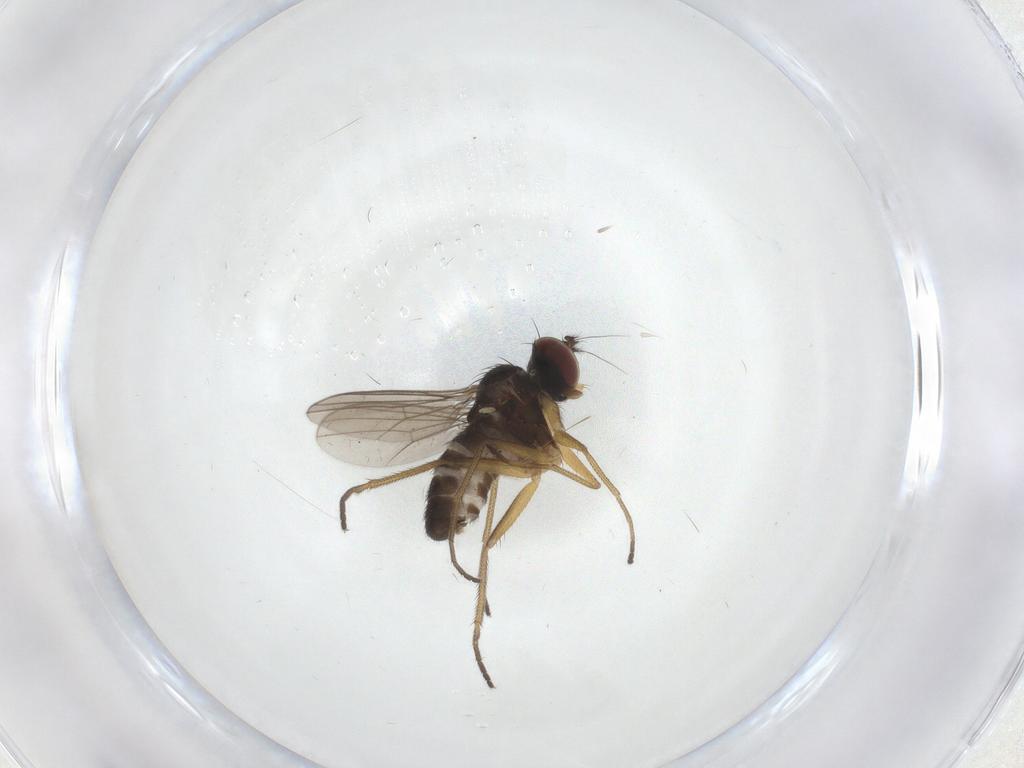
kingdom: Animalia
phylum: Arthropoda
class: Insecta
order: Diptera
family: Dolichopodidae
